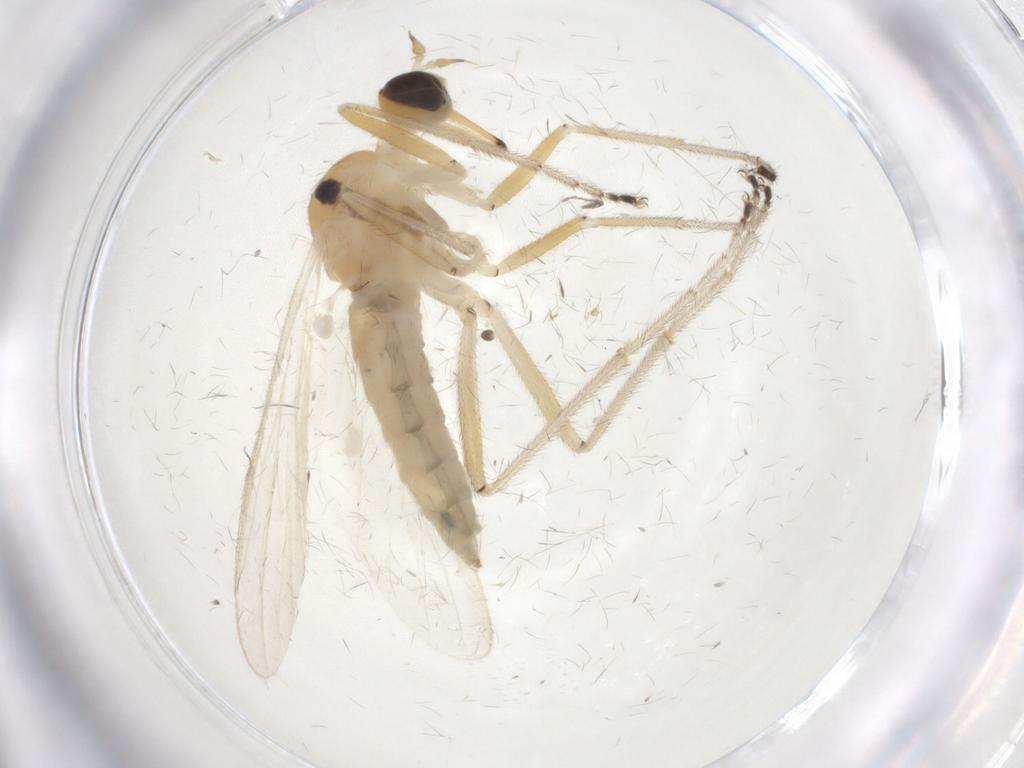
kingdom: Animalia
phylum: Arthropoda
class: Insecta
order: Diptera
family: Empididae
